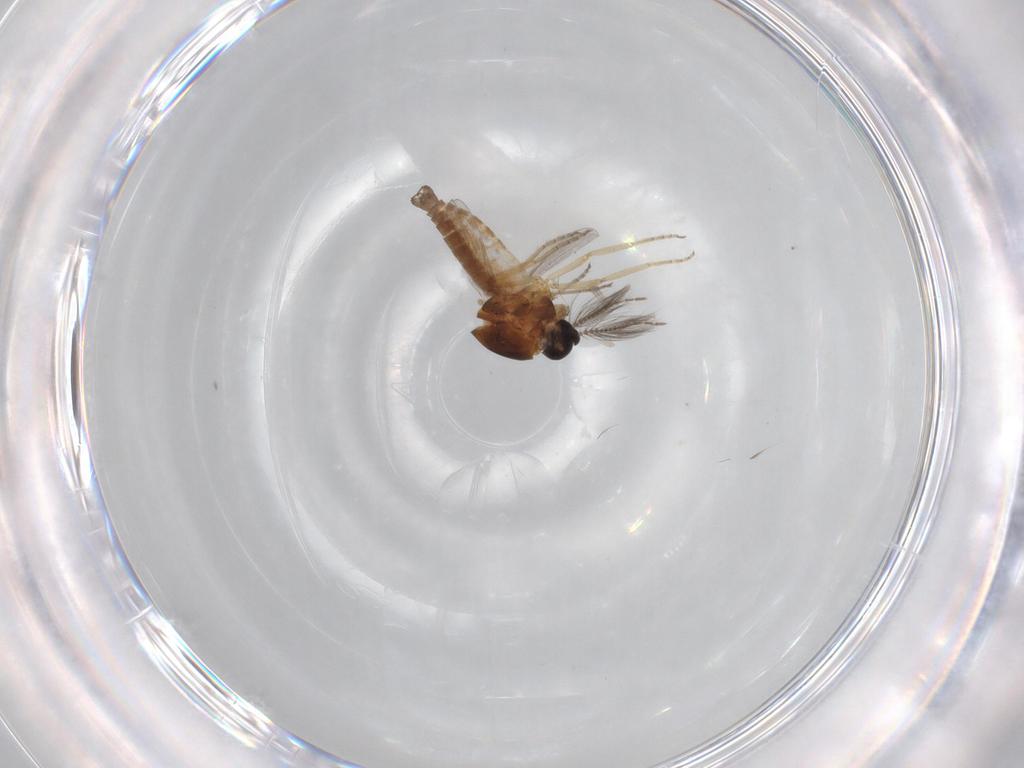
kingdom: Animalia
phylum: Arthropoda
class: Insecta
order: Diptera
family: Ceratopogonidae
